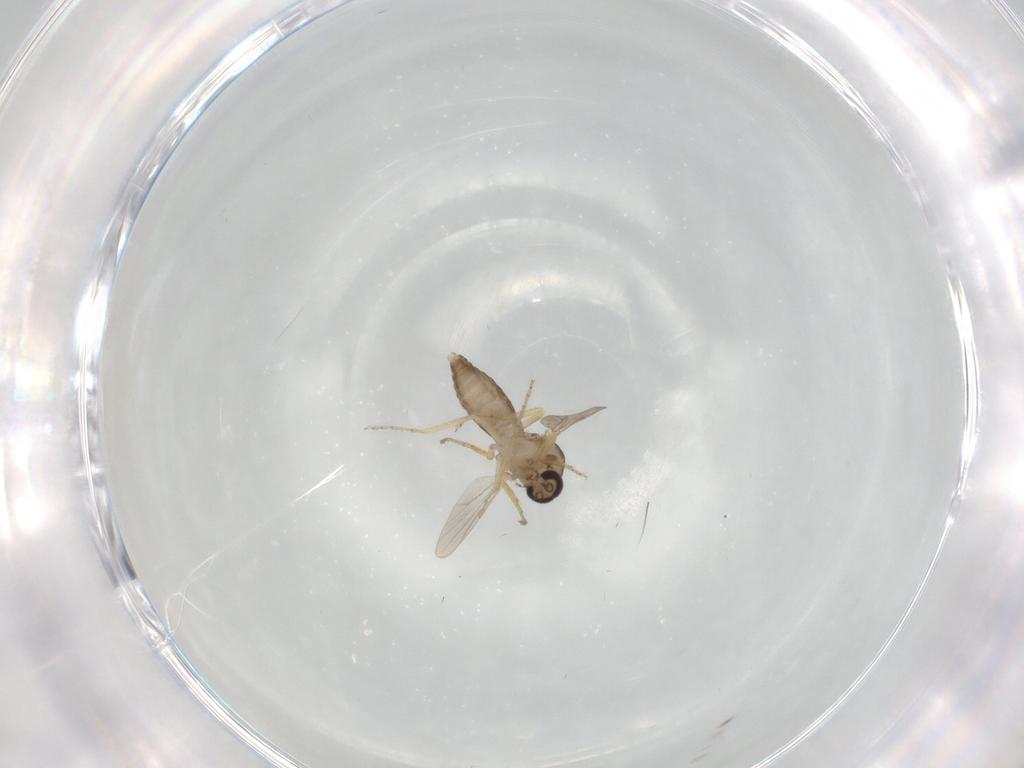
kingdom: Animalia
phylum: Arthropoda
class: Insecta
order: Diptera
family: Ceratopogonidae
